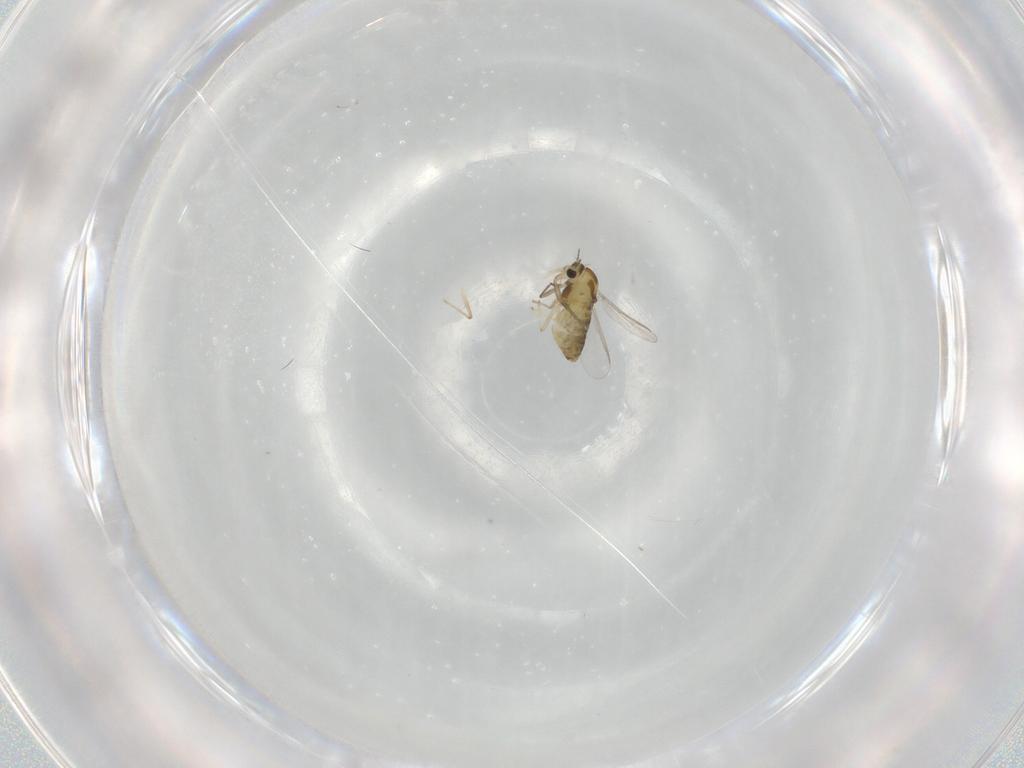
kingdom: Animalia
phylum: Arthropoda
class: Insecta
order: Diptera
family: Limoniidae
